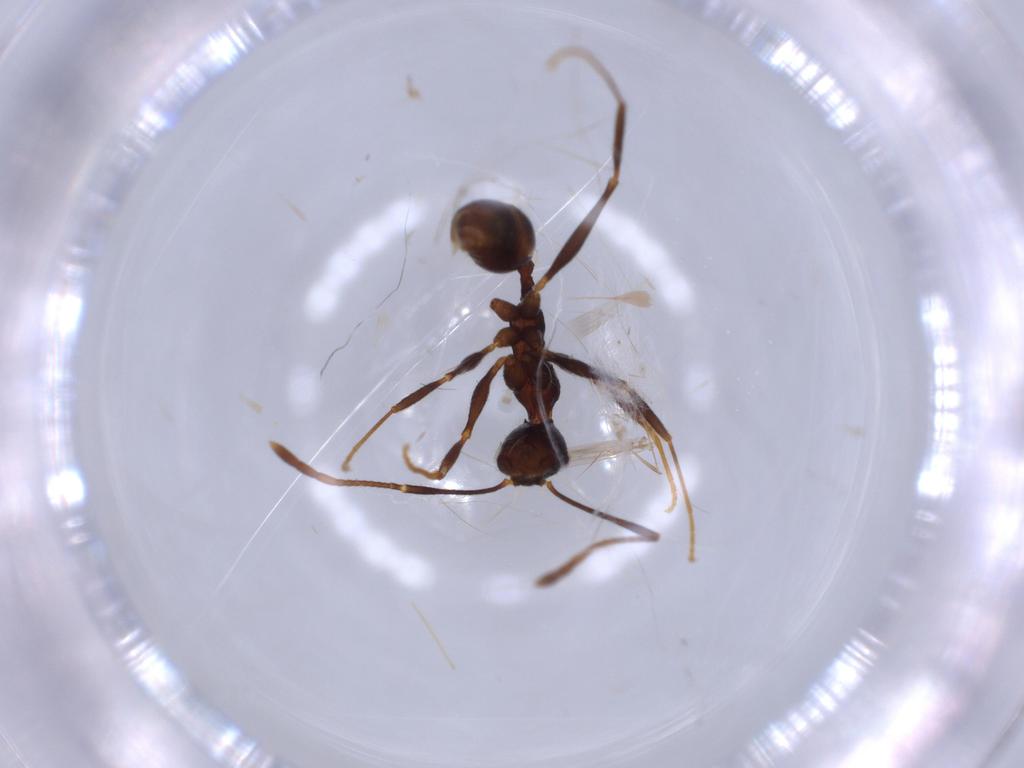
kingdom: Animalia
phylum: Arthropoda
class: Insecta
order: Hymenoptera
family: Formicidae
